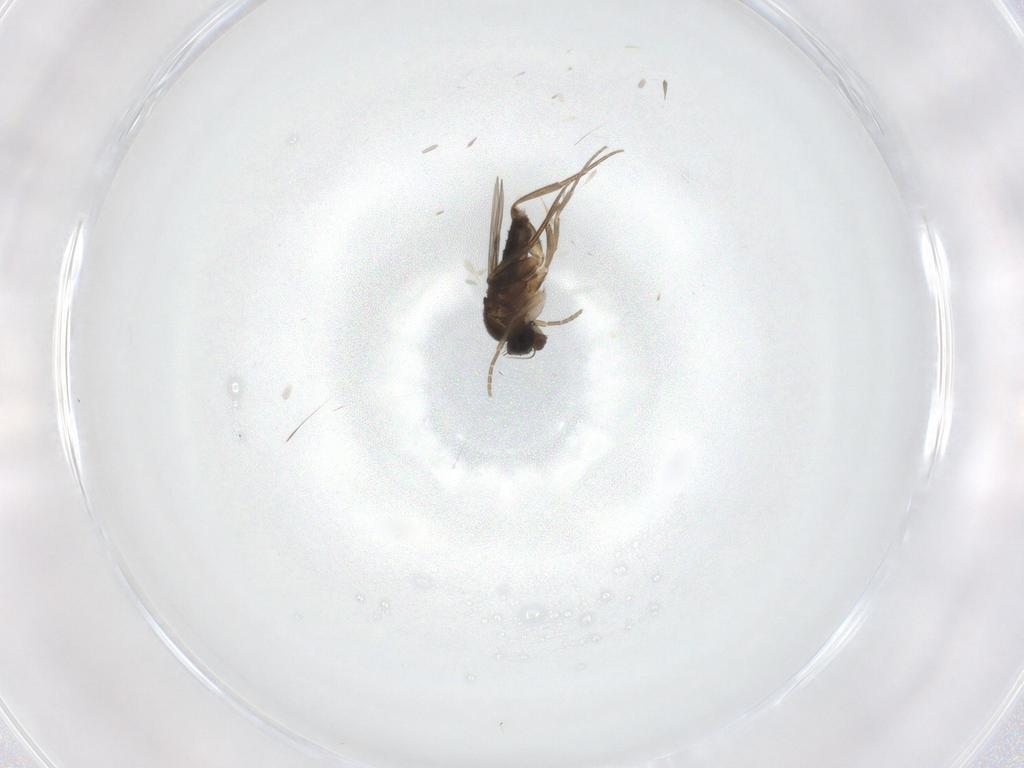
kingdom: Animalia
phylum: Arthropoda
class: Insecta
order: Diptera
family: Phoridae
